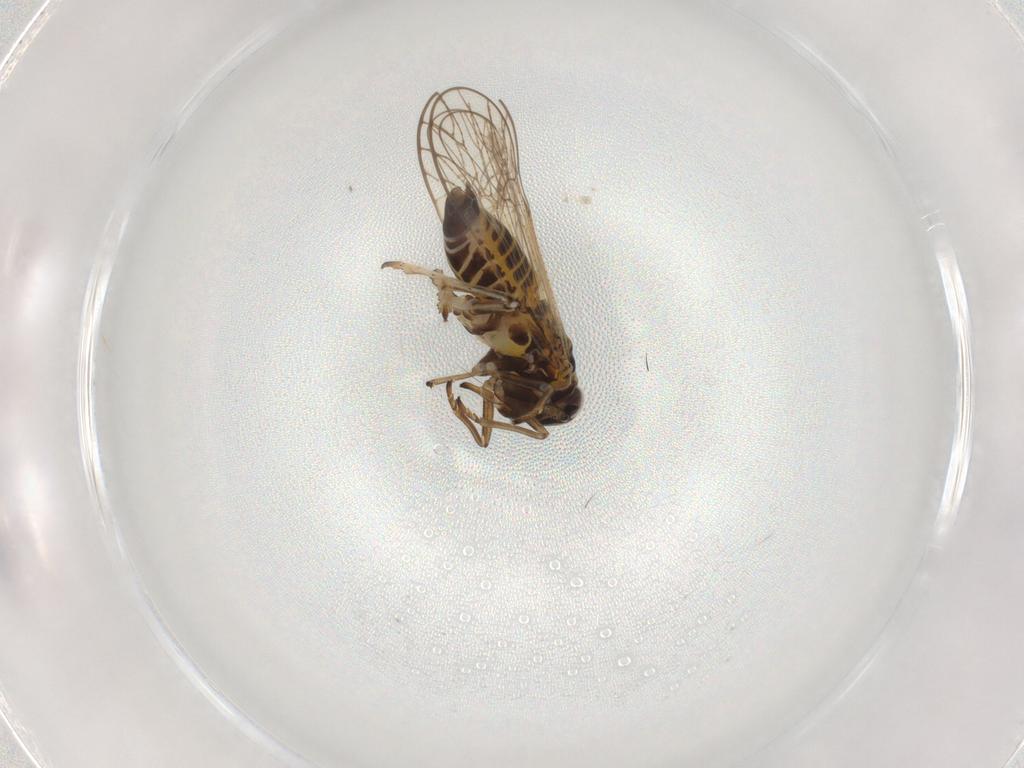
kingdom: Animalia
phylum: Arthropoda
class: Insecta
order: Hemiptera
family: Delphacidae
